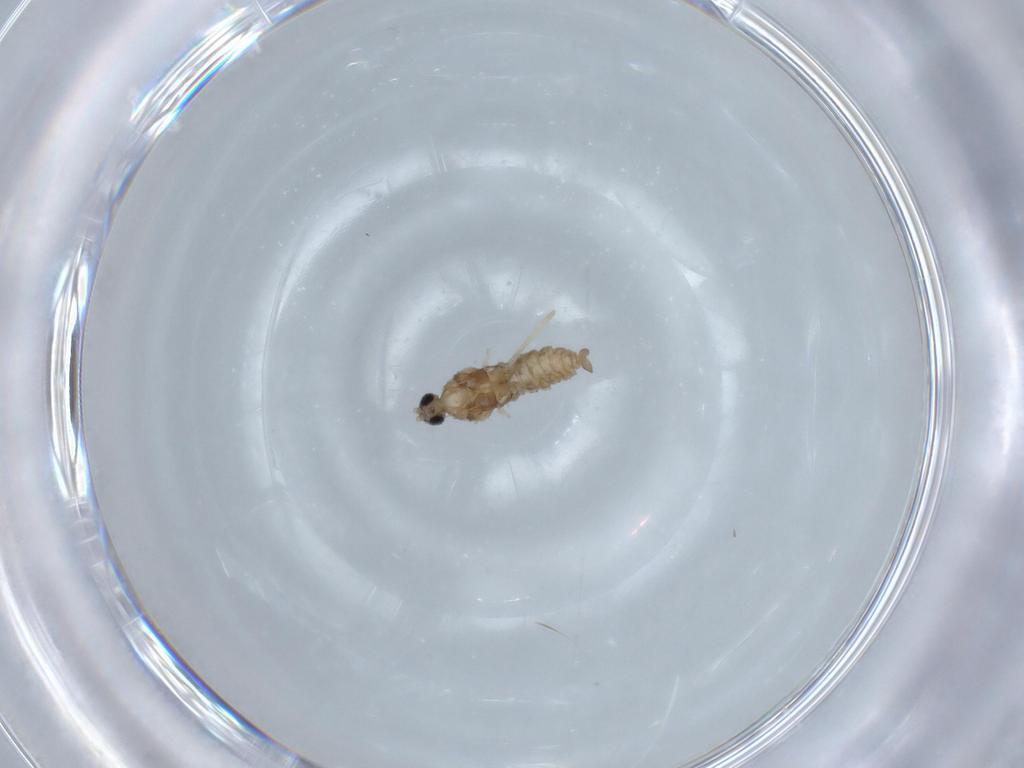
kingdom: Animalia
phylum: Arthropoda
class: Insecta
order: Diptera
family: Cecidomyiidae
